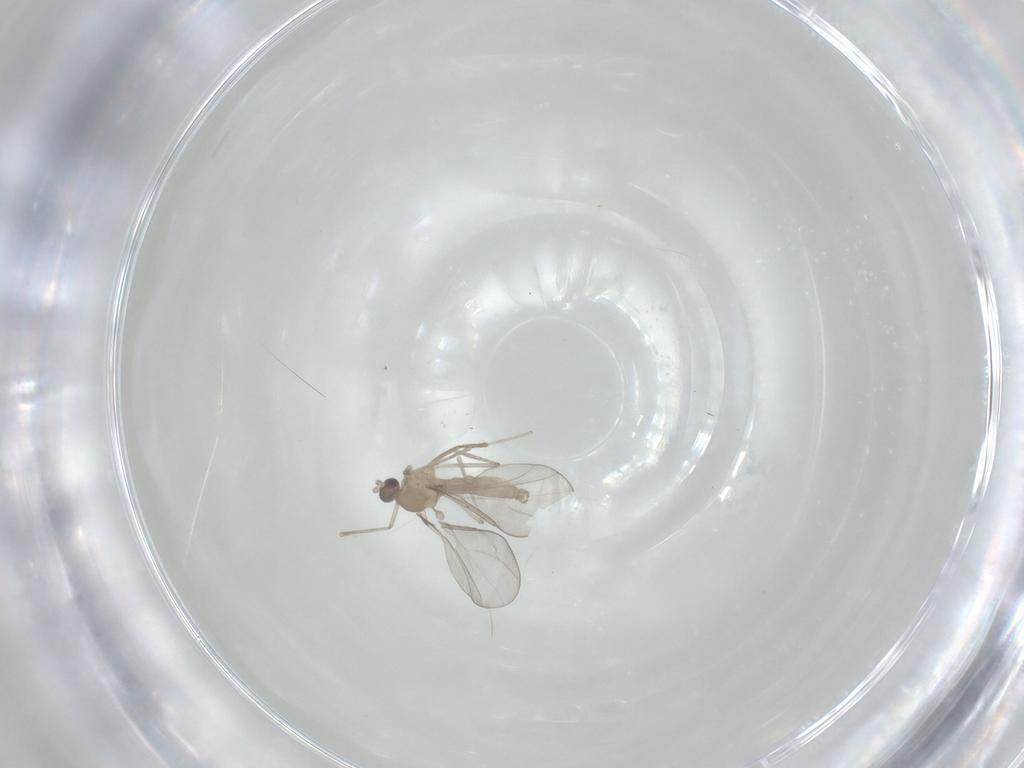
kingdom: Animalia
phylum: Arthropoda
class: Insecta
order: Diptera
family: Cecidomyiidae
